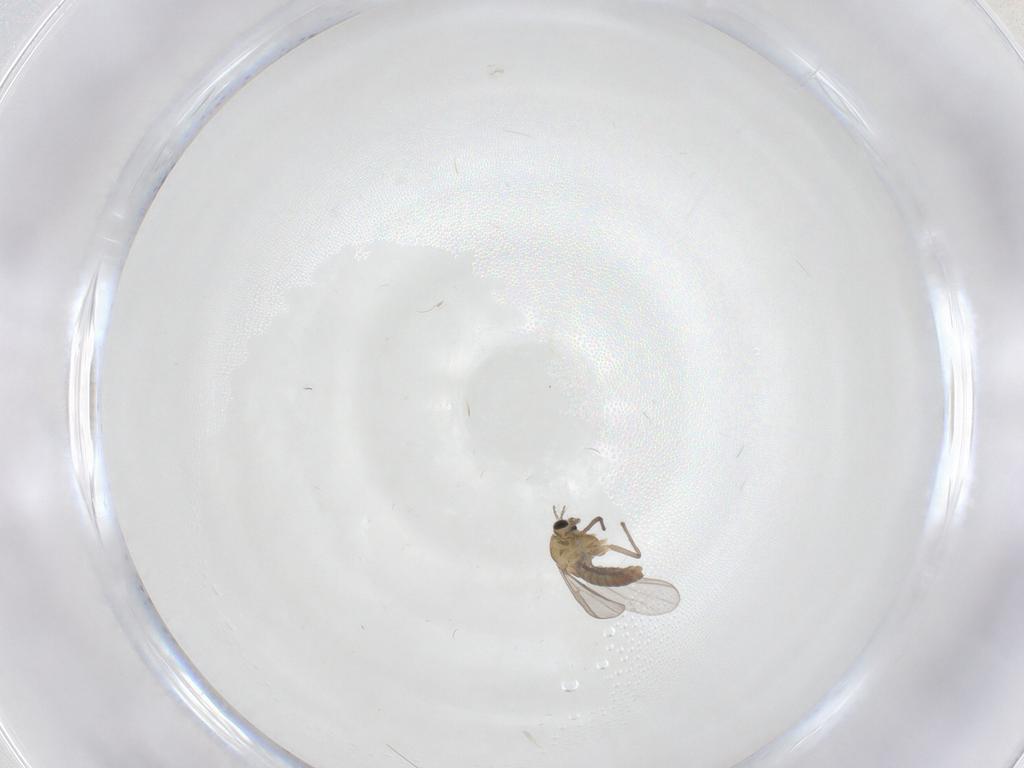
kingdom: Animalia
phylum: Arthropoda
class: Insecta
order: Diptera
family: Chironomidae
